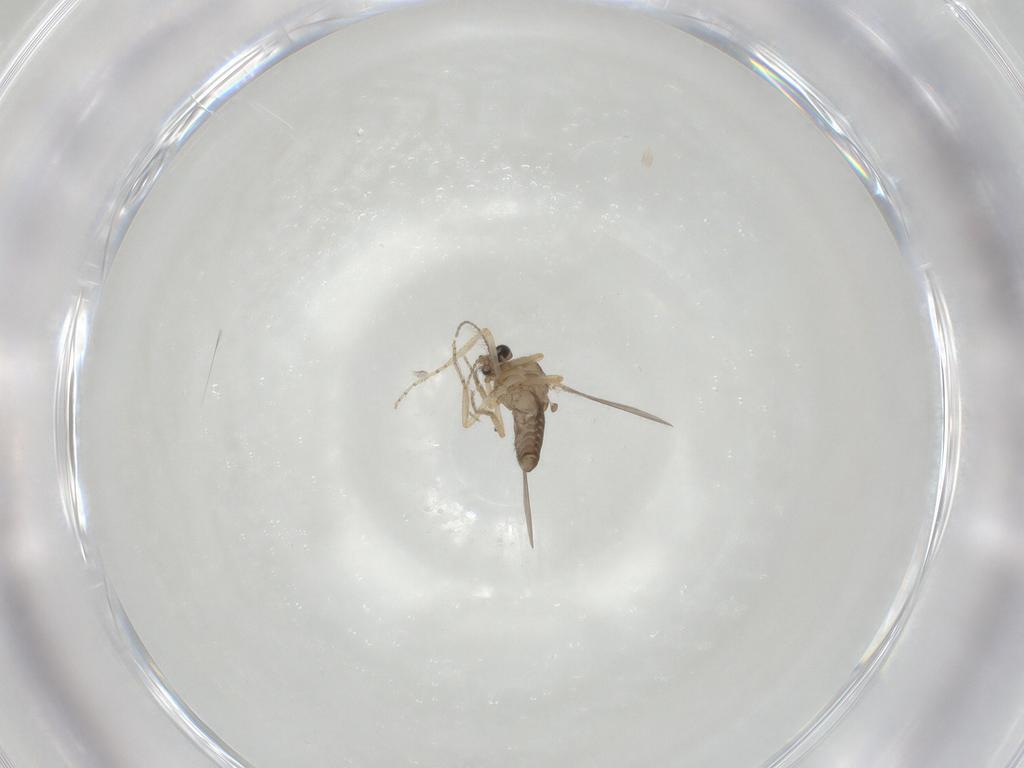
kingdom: Animalia
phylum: Arthropoda
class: Insecta
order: Diptera
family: Ceratopogonidae
